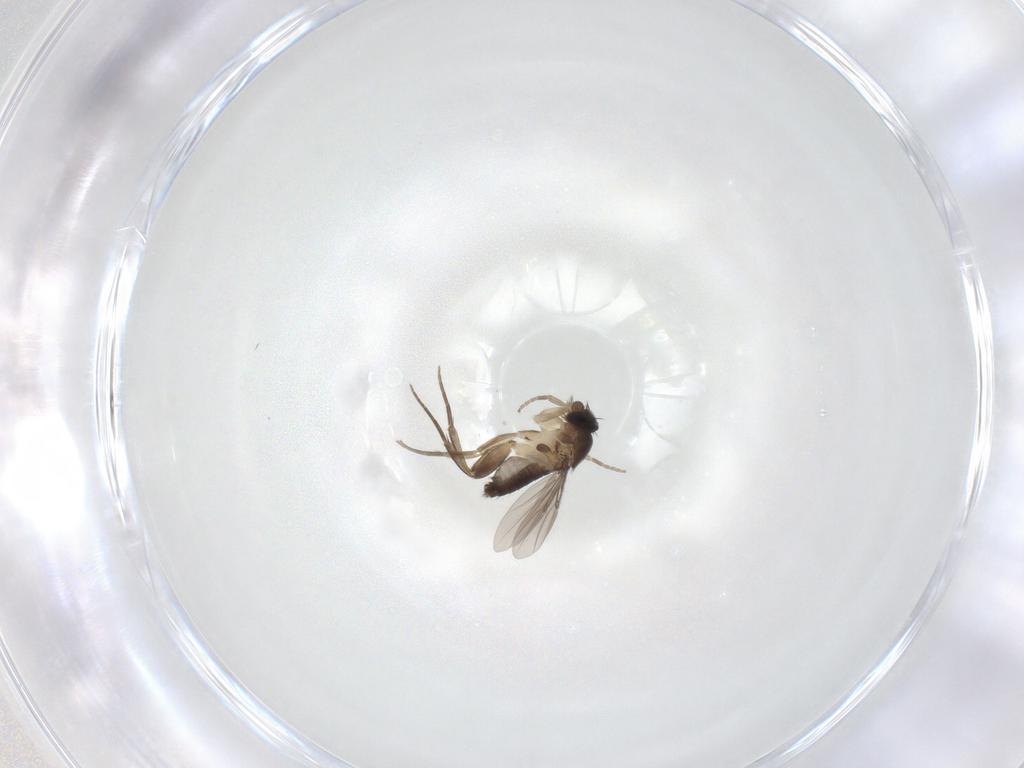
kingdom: Animalia
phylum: Arthropoda
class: Insecta
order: Diptera
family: Phoridae
